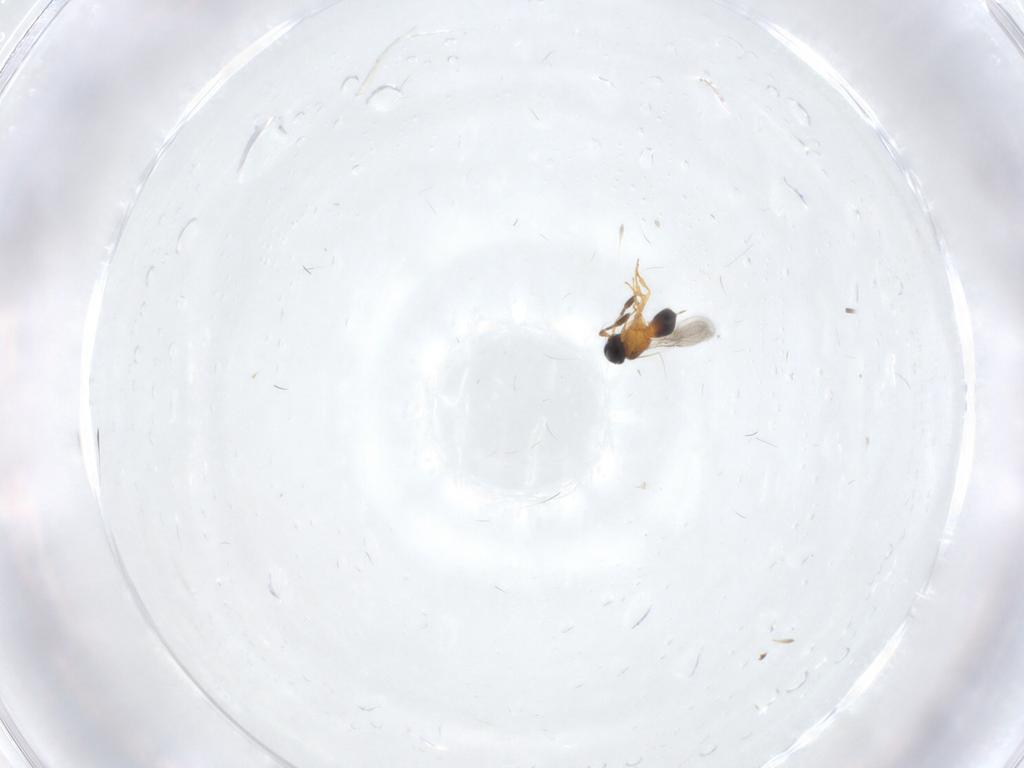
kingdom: Animalia
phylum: Arthropoda
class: Insecta
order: Hymenoptera
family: Scelionidae
